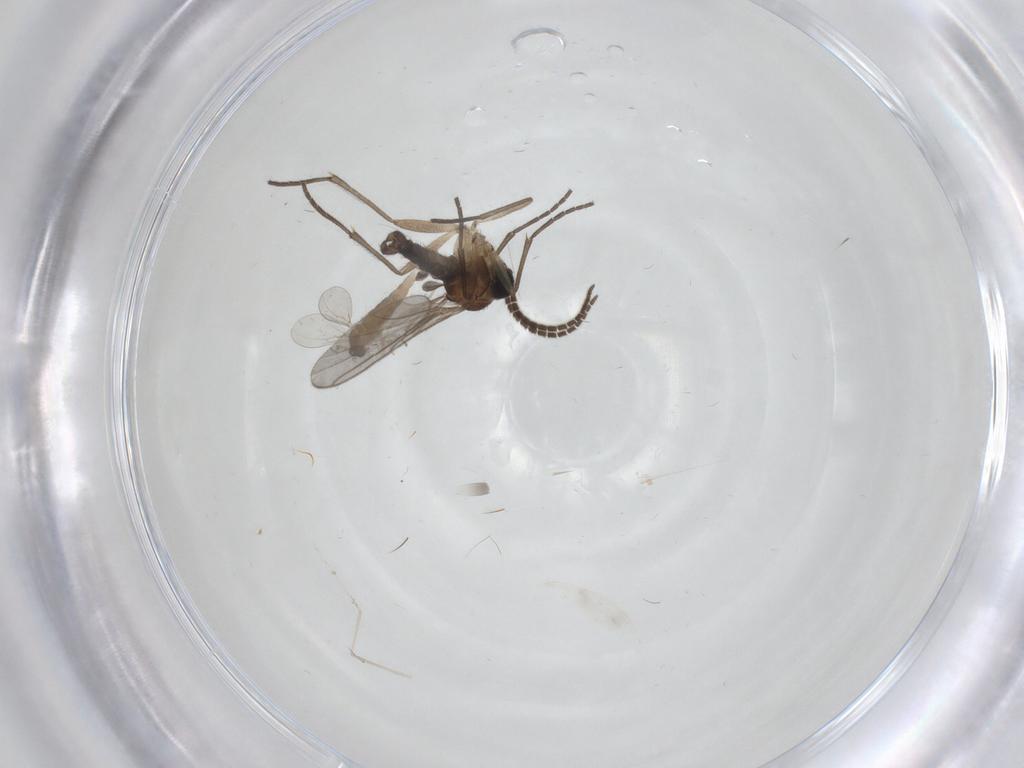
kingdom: Animalia
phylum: Arthropoda
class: Insecta
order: Diptera
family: Sciaridae
